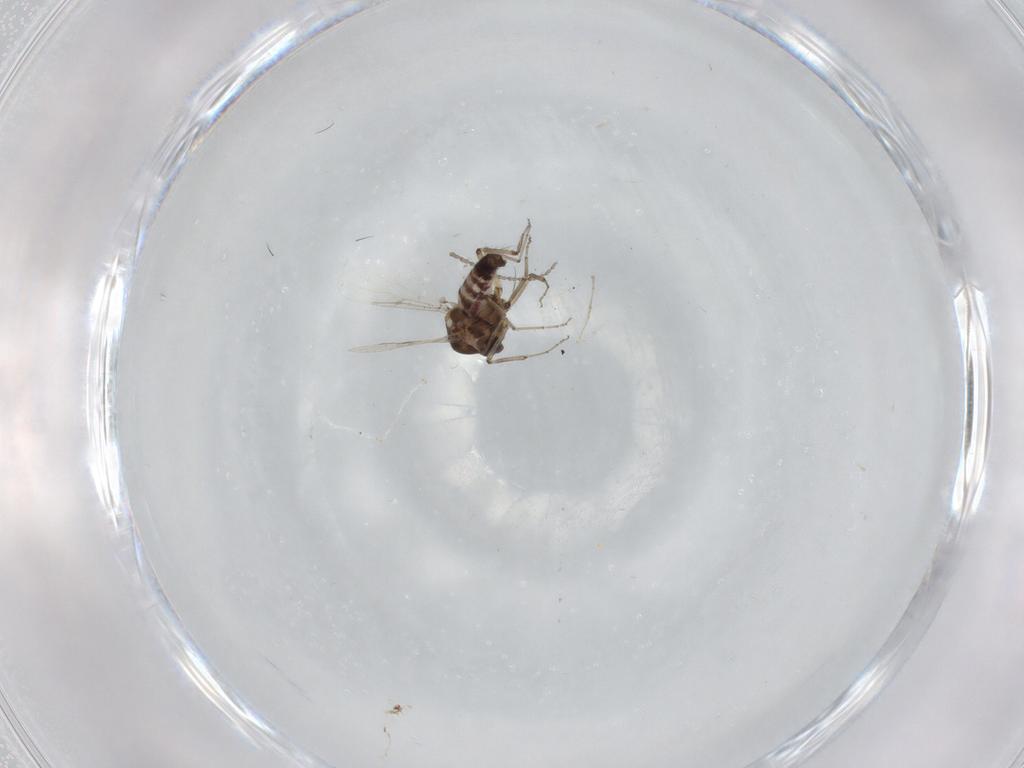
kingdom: Animalia
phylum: Arthropoda
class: Insecta
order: Diptera
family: Ceratopogonidae
